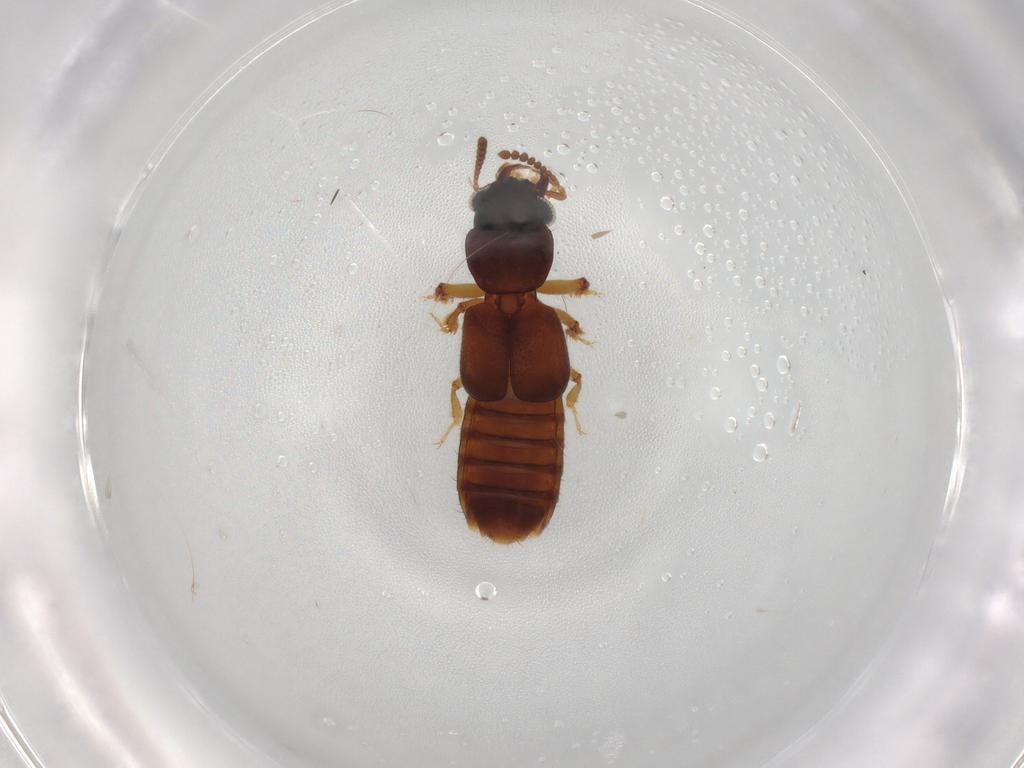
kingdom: Animalia
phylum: Arthropoda
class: Insecta
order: Coleoptera
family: Staphylinidae
